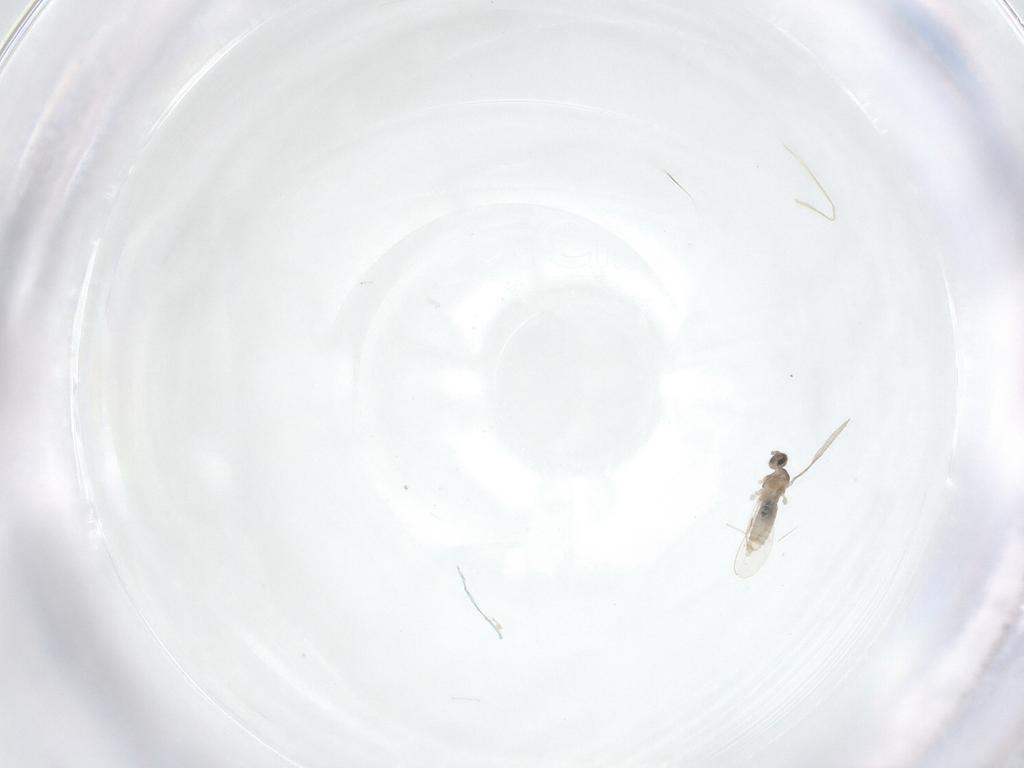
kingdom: Animalia
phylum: Arthropoda
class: Insecta
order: Diptera
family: Cecidomyiidae
